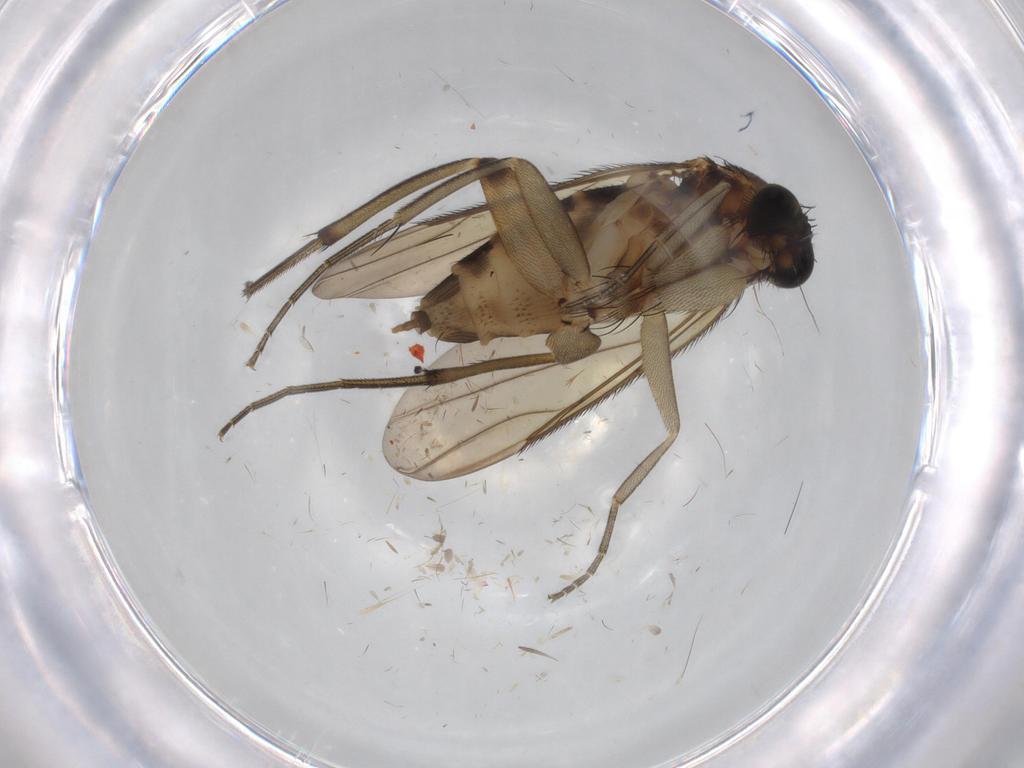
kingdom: Animalia
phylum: Arthropoda
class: Insecta
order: Diptera
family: Phoridae
